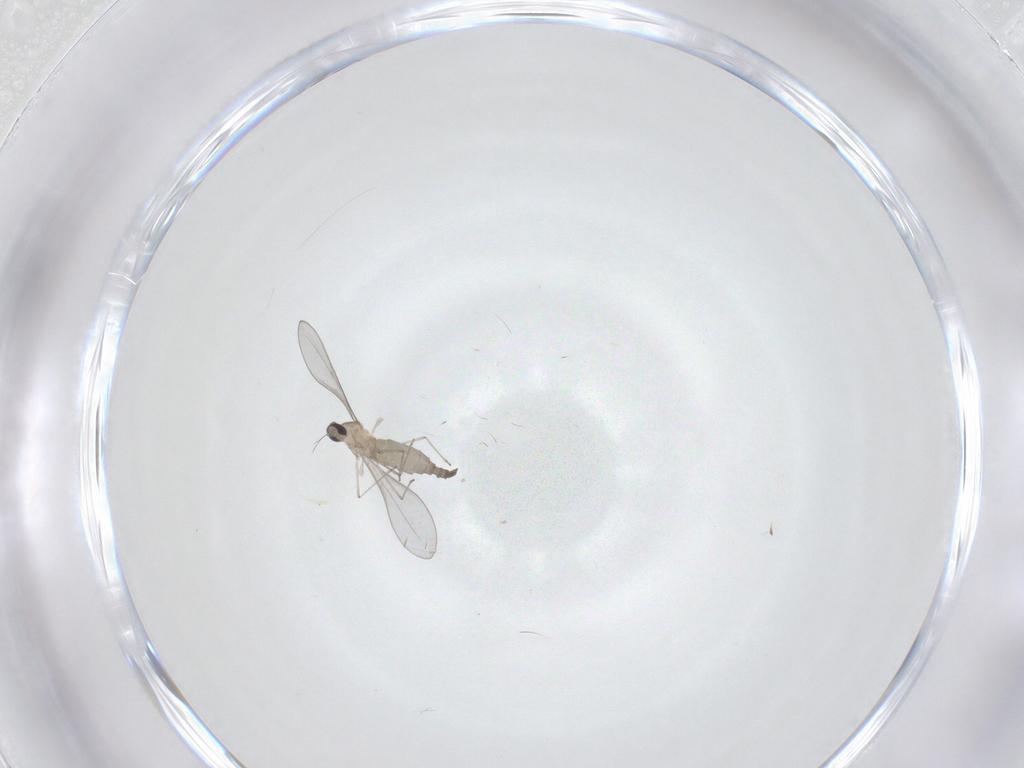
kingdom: Animalia
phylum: Arthropoda
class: Insecta
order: Diptera
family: Cecidomyiidae
